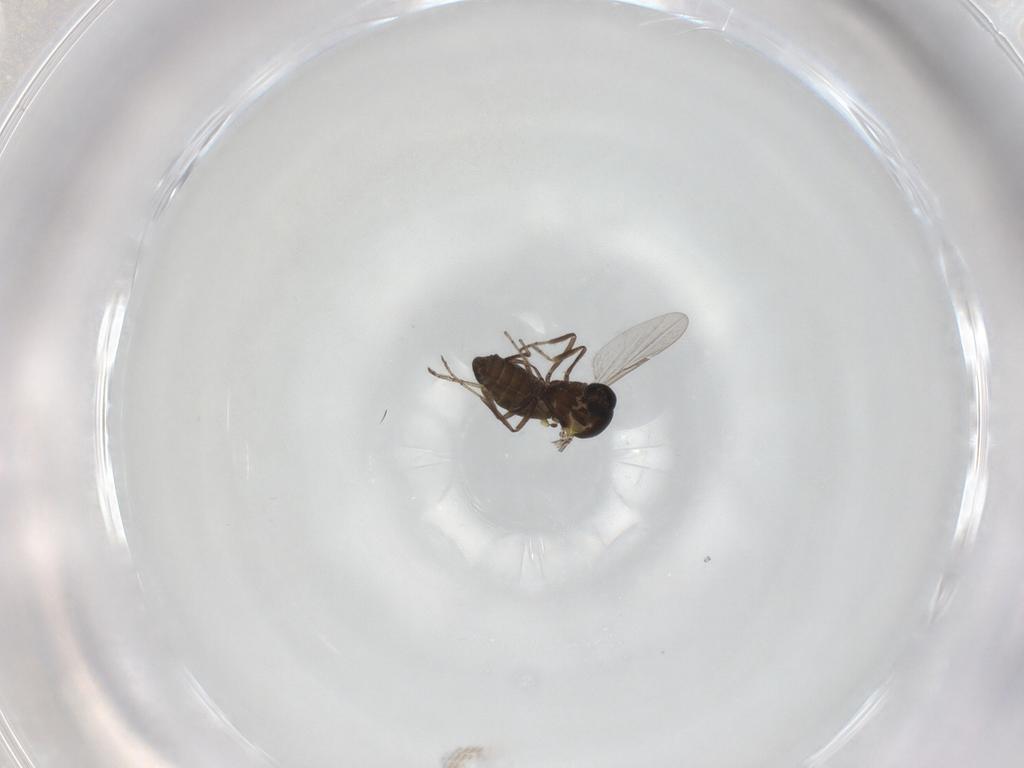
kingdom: Animalia
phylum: Arthropoda
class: Insecta
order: Diptera
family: Ceratopogonidae
